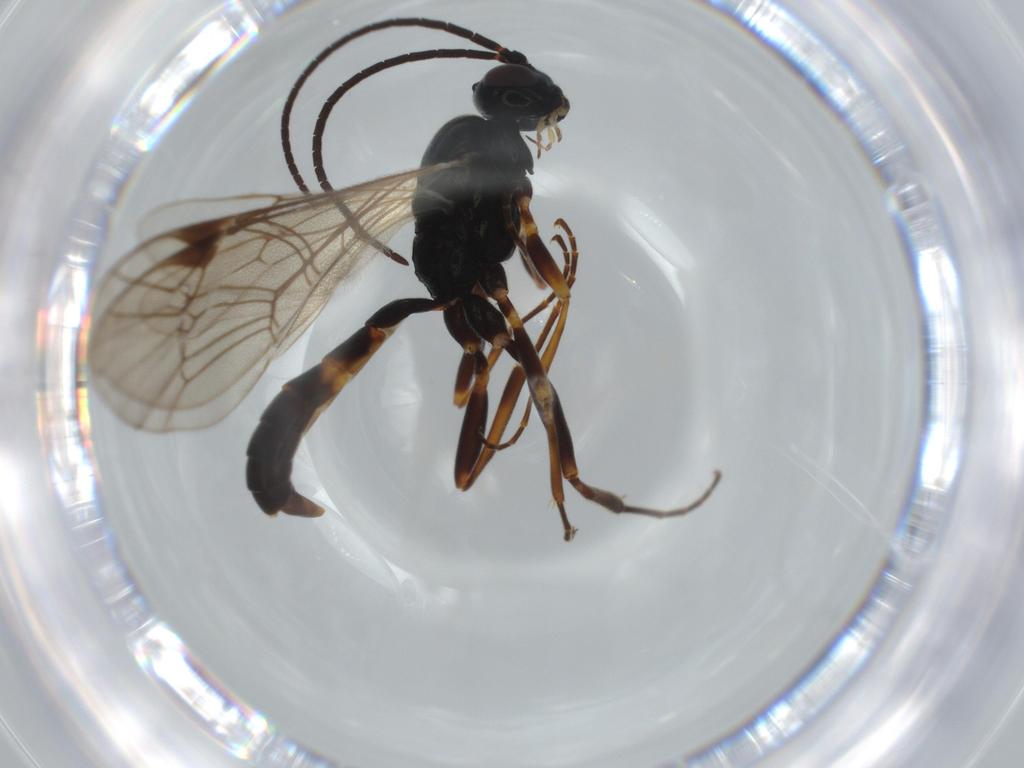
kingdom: Animalia
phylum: Arthropoda
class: Insecta
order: Hymenoptera
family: Ichneumonidae
